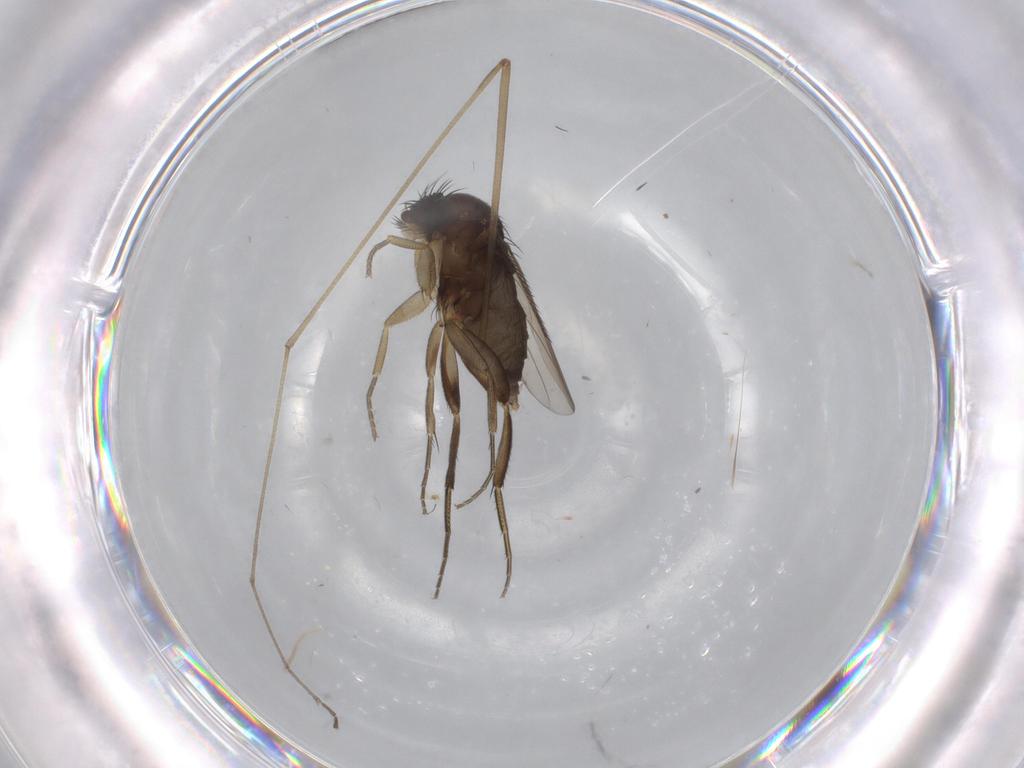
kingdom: Animalia
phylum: Arthropoda
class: Insecta
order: Diptera
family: Limoniidae
